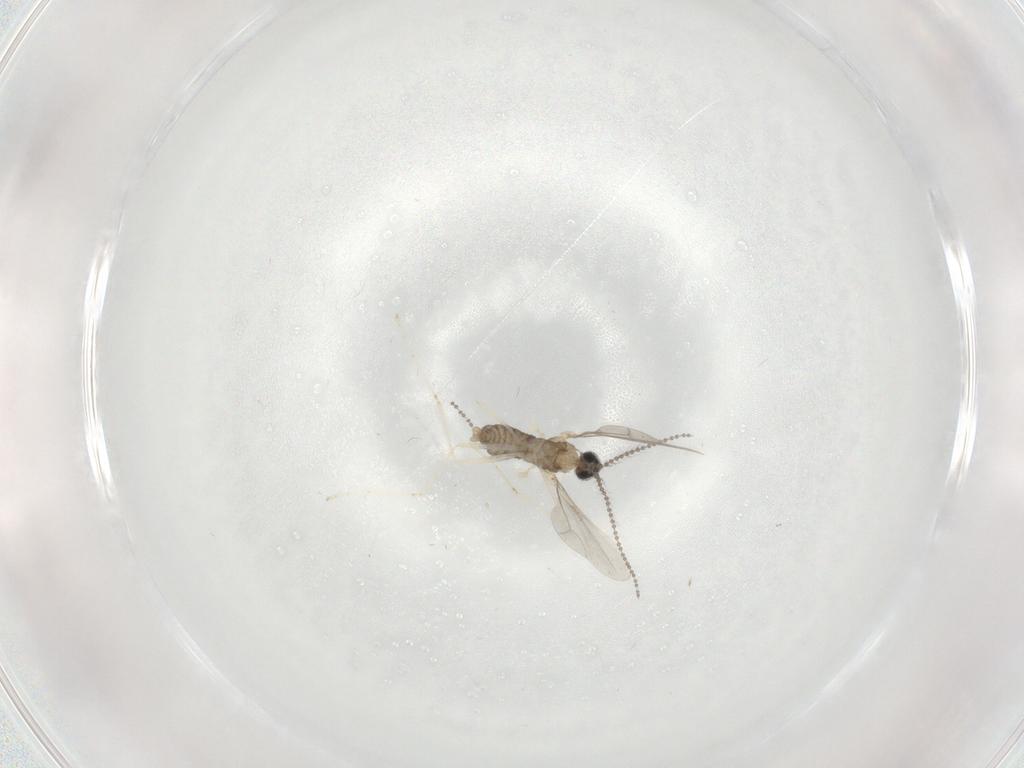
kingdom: Animalia
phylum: Arthropoda
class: Insecta
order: Diptera
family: Cecidomyiidae
